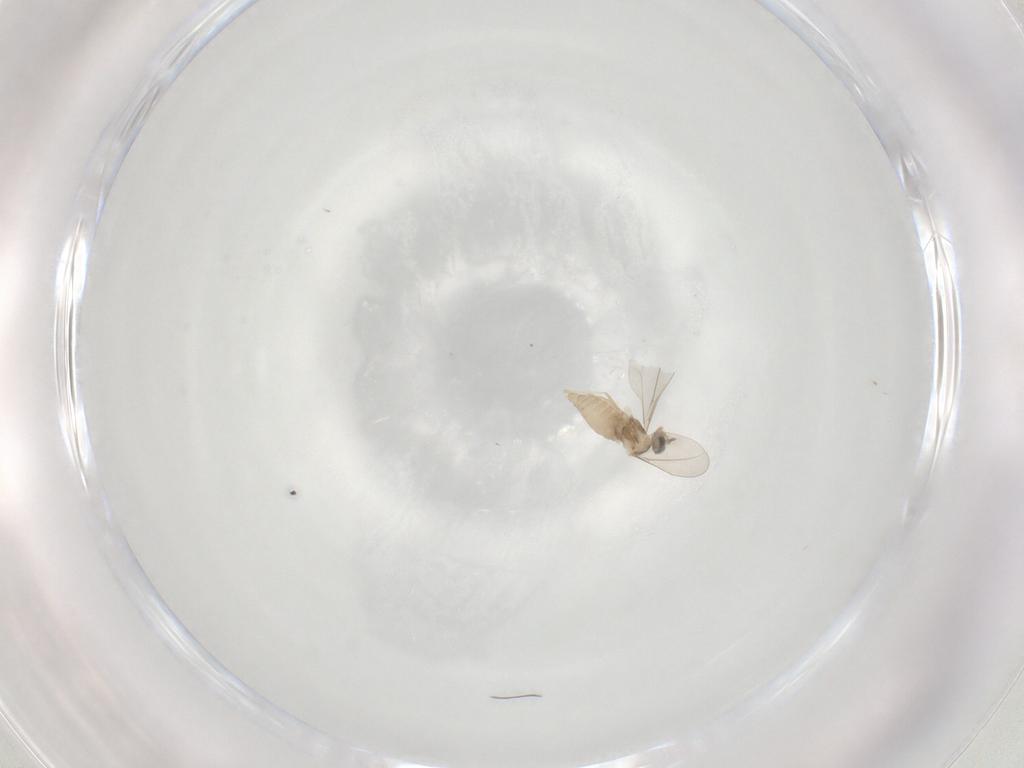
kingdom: Animalia
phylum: Arthropoda
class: Insecta
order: Diptera
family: Cecidomyiidae
